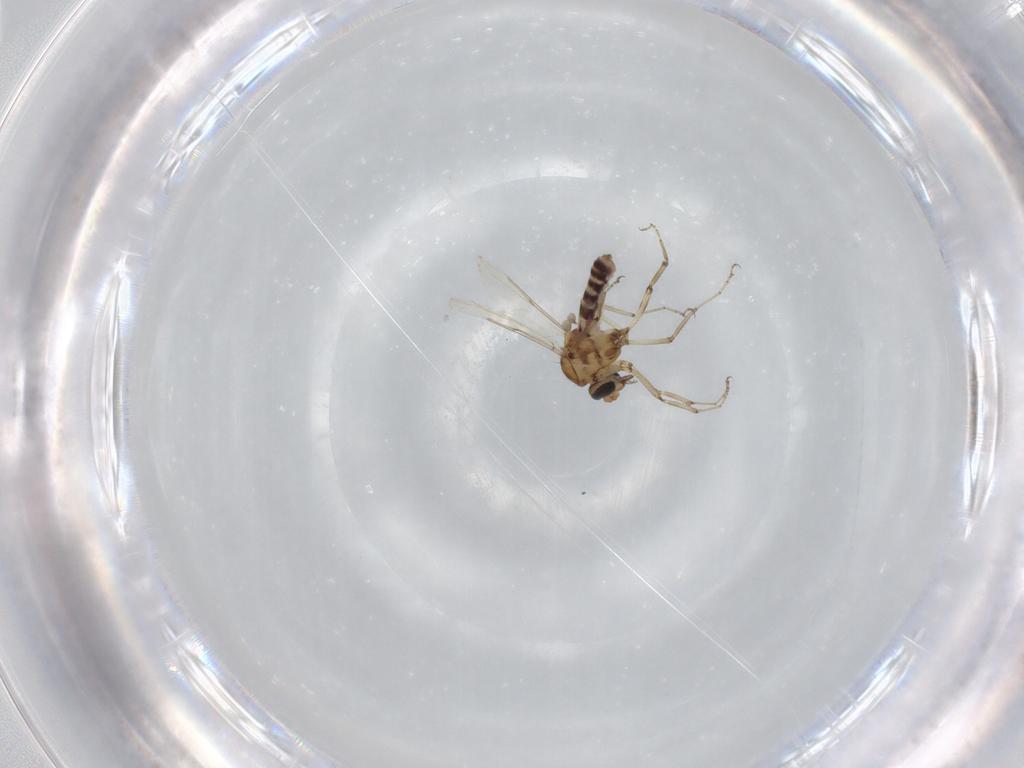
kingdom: Animalia
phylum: Arthropoda
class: Insecta
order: Diptera
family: Ceratopogonidae
